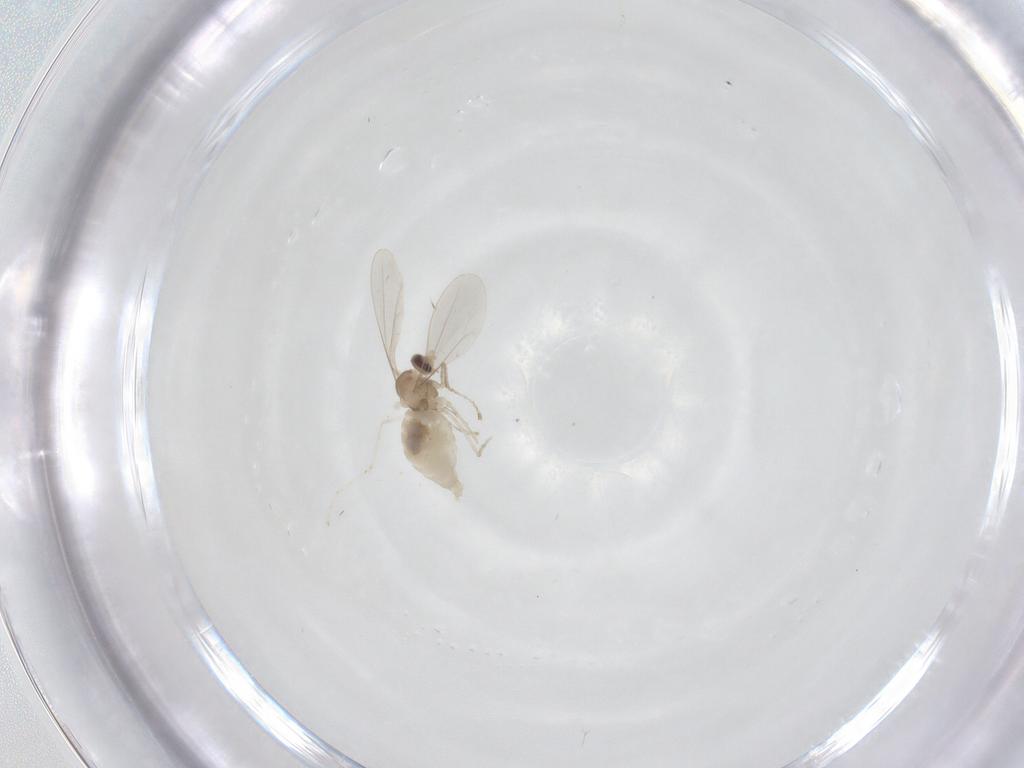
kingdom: Animalia
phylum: Arthropoda
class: Insecta
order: Diptera
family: Cecidomyiidae
